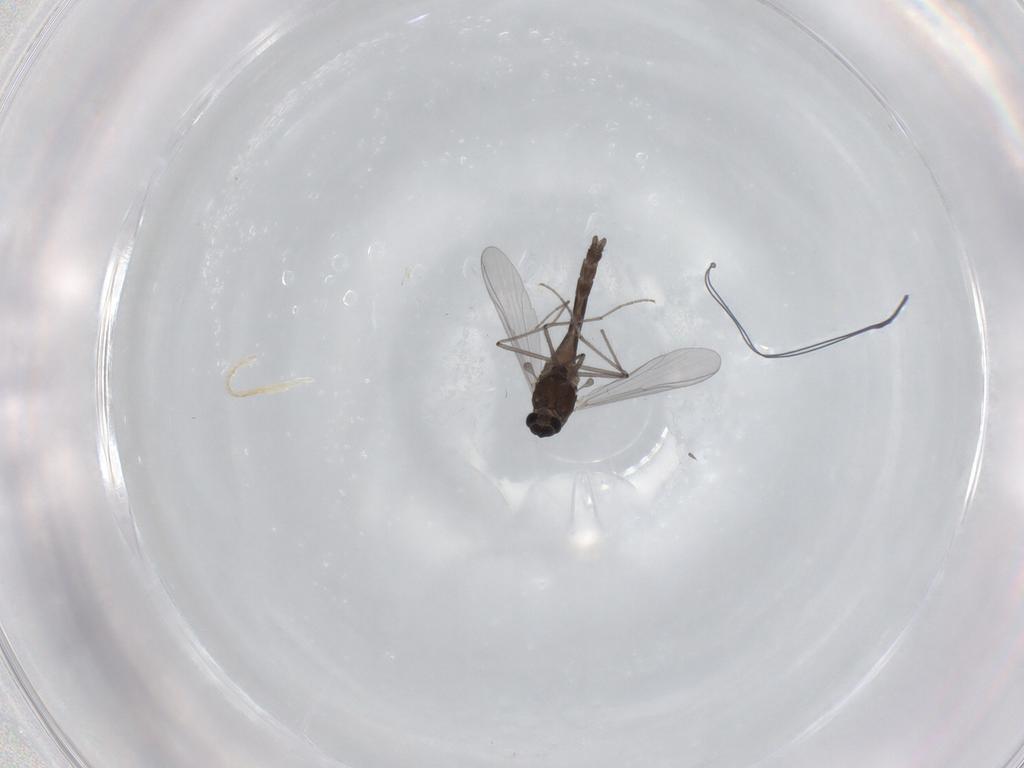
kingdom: Animalia
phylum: Arthropoda
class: Insecta
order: Diptera
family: Chironomidae
